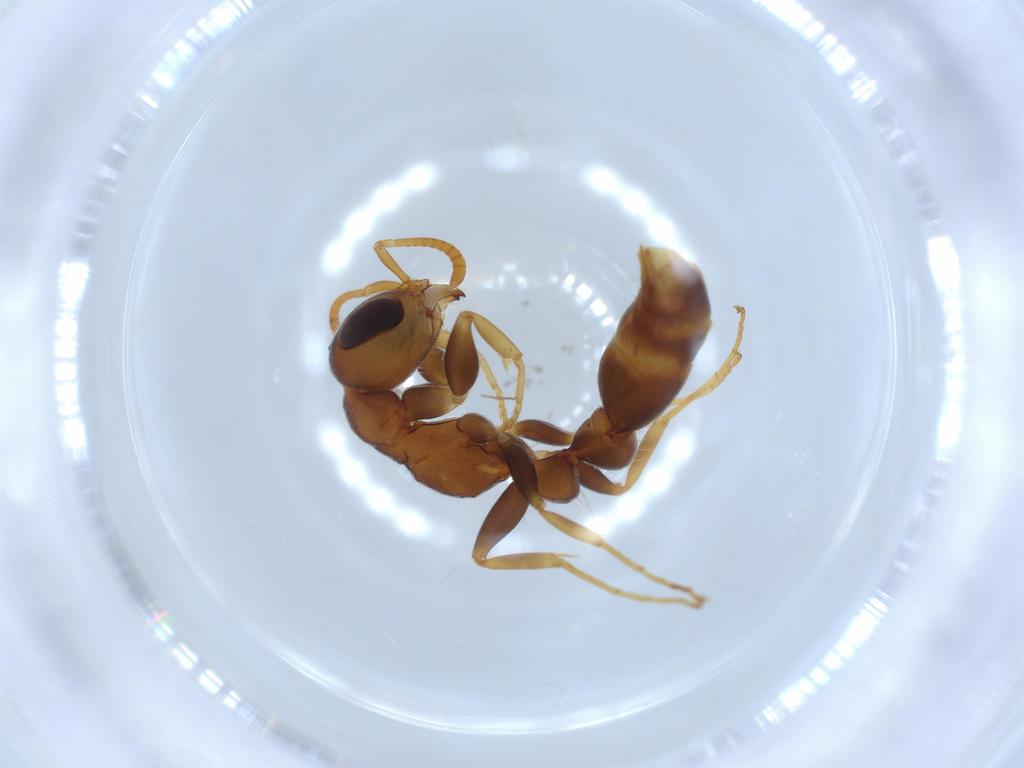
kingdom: Animalia
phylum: Arthropoda
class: Insecta
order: Hymenoptera
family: Formicidae
